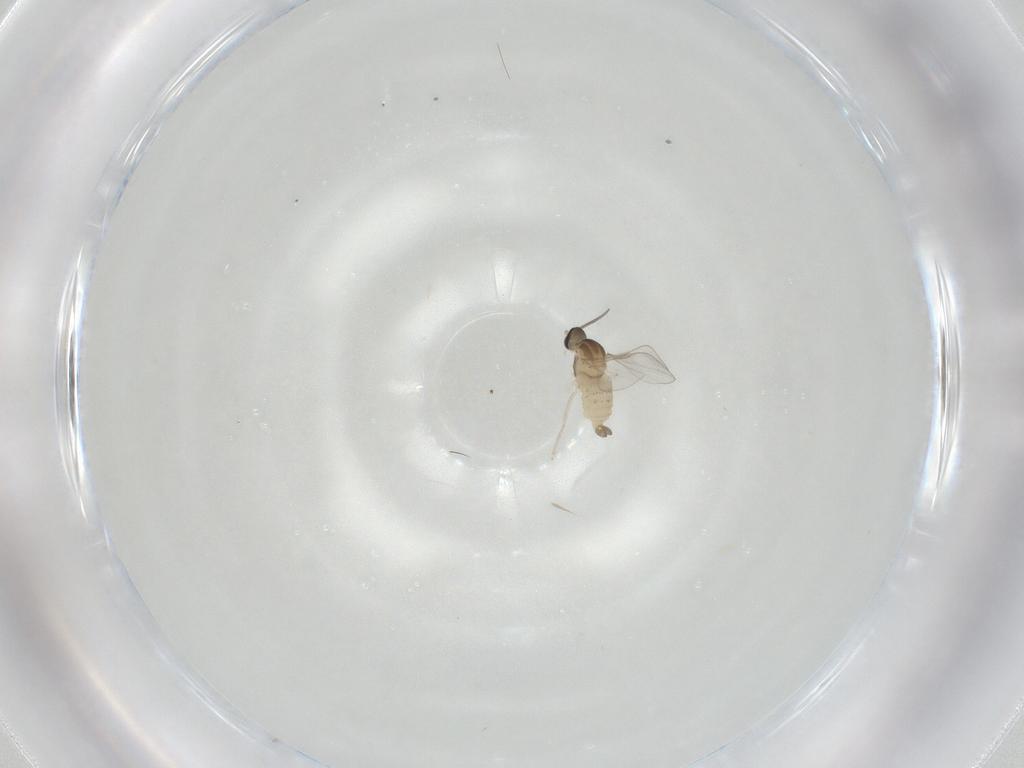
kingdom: Animalia
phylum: Arthropoda
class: Insecta
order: Diptera
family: Cecidomyiidae
